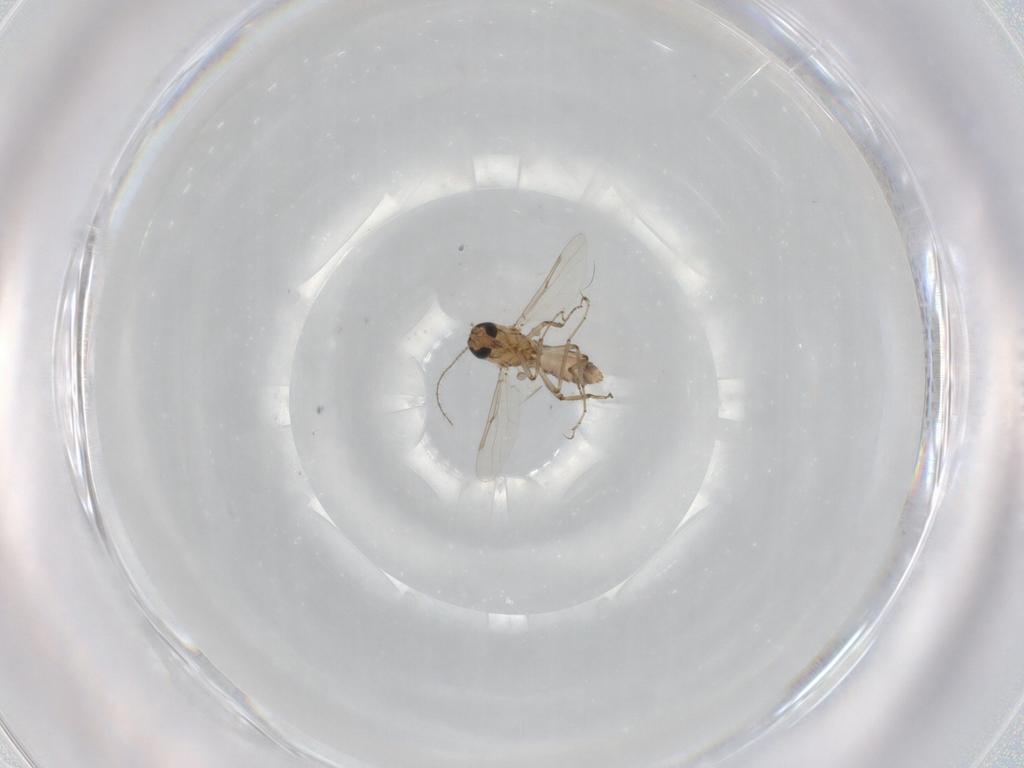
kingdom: Animalia
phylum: Arthropoda
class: Insecta
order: Diptera
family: Ceratopogonidae
